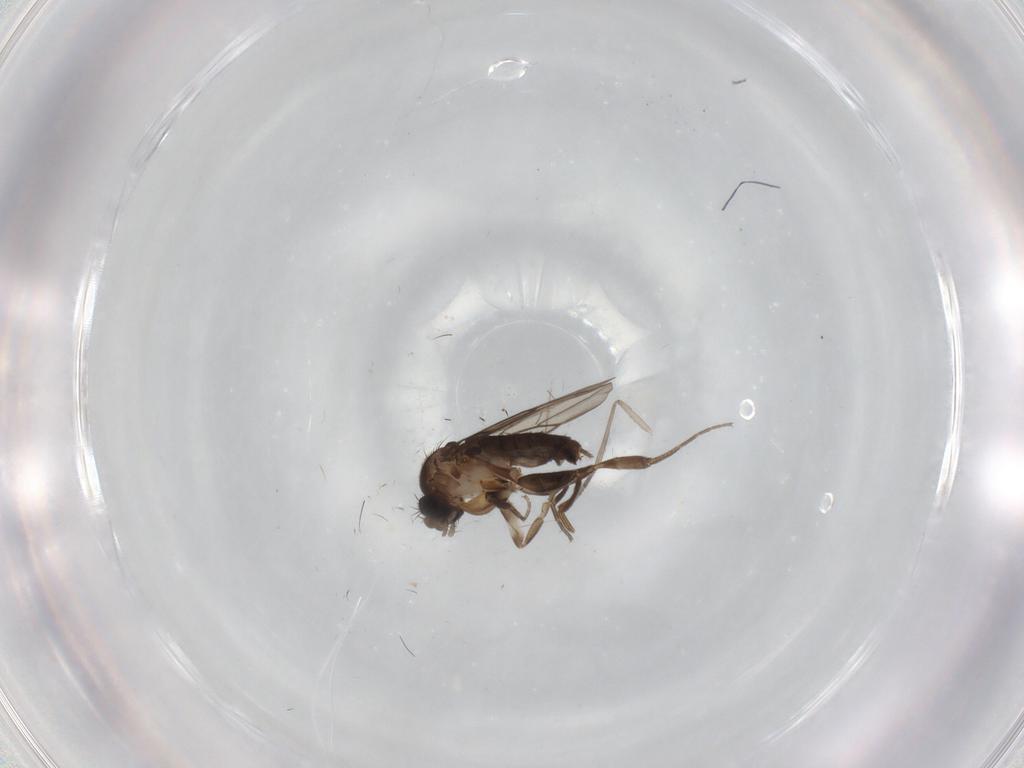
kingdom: Animalia
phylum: Arthropoda
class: Insecta
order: Diptera
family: Psychodidae
